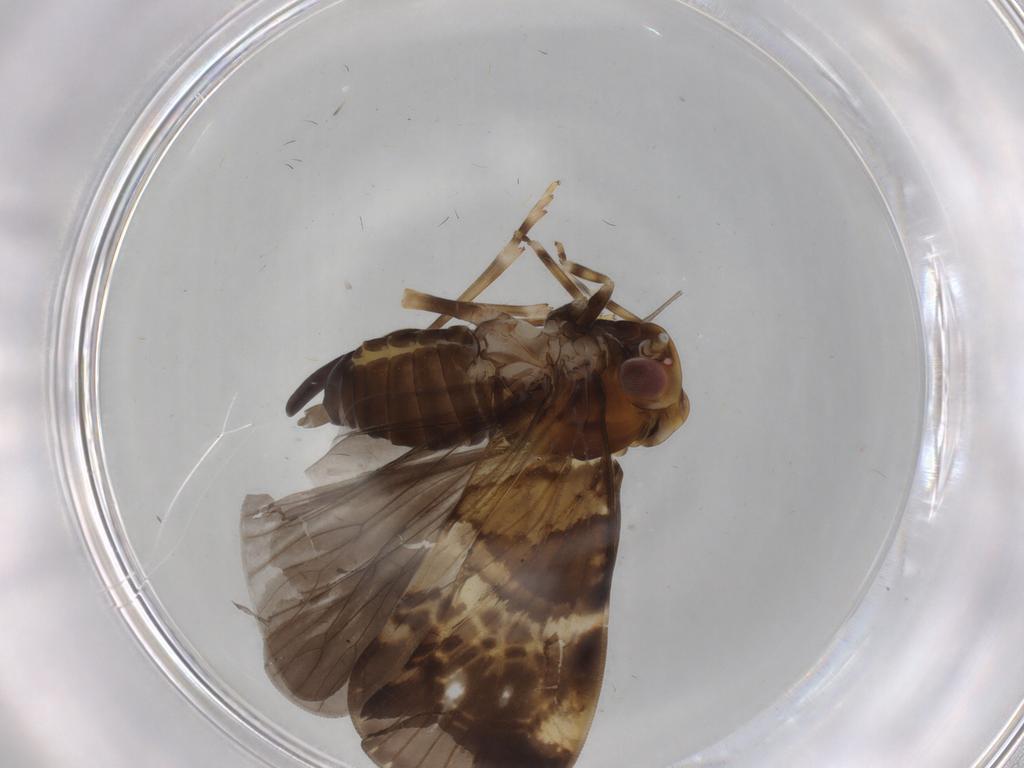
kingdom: Animalia
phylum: Arthropoda
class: Insecta
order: Hemiptera
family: Cixiidae
